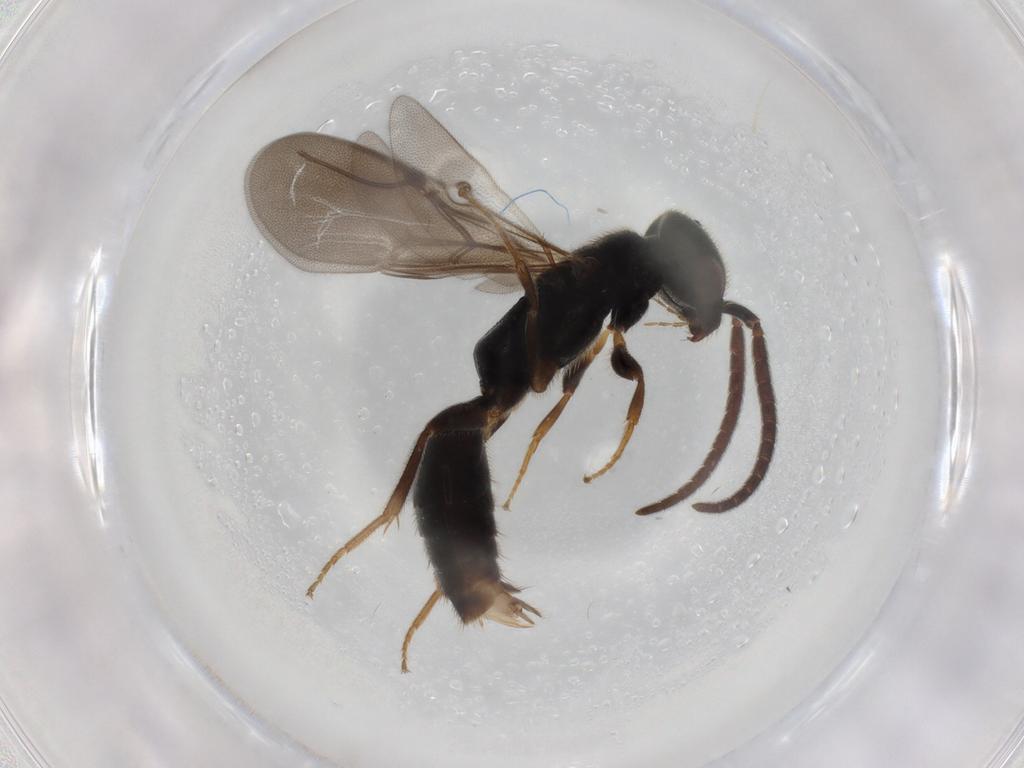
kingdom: Animalia
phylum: Arthropoda
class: Insecta
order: Hymenoptera
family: Bethylidae
